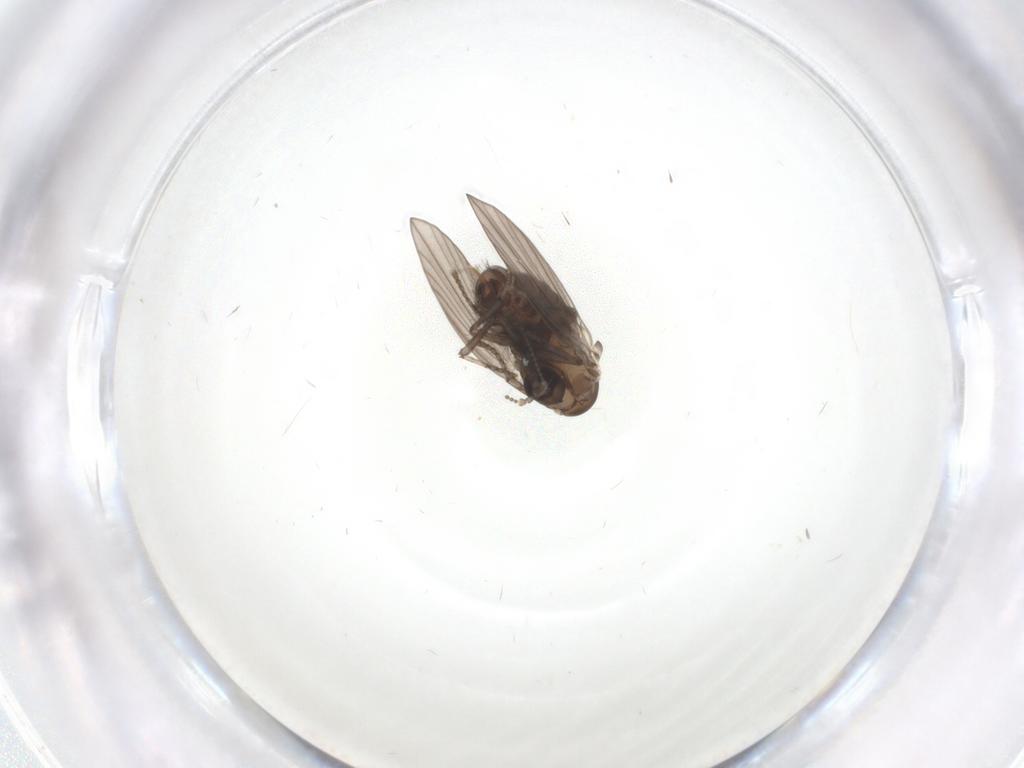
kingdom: Animalia
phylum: Arthropoda
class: Insecta
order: Diptera
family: Psychodidae
